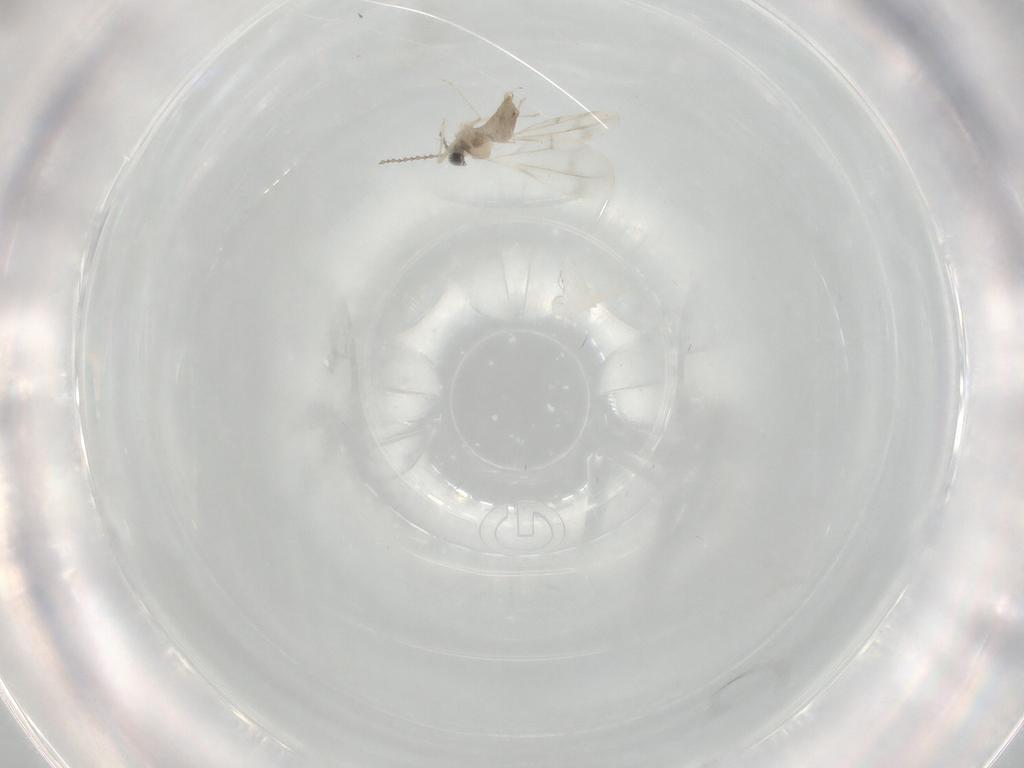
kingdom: Animalia
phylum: Arthropoda
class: Insecta
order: Diptera
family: Cecidomyiidae
